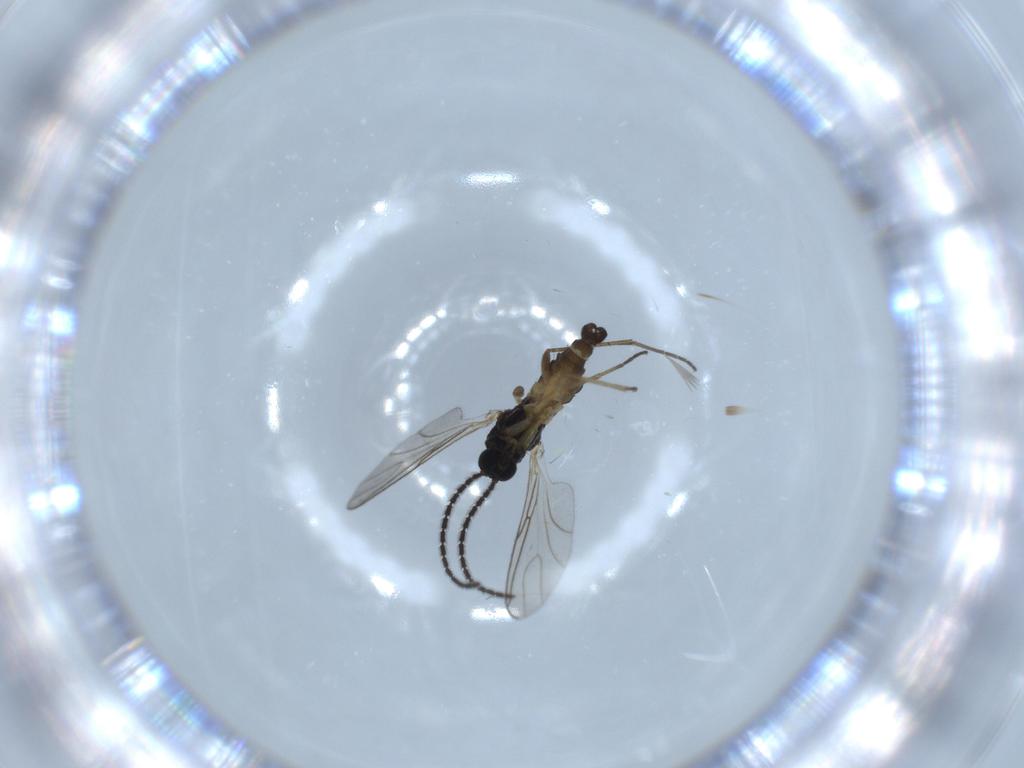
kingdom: Animalia
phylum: Arthropoda
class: Insecta
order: Diptera
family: Sciaridae
